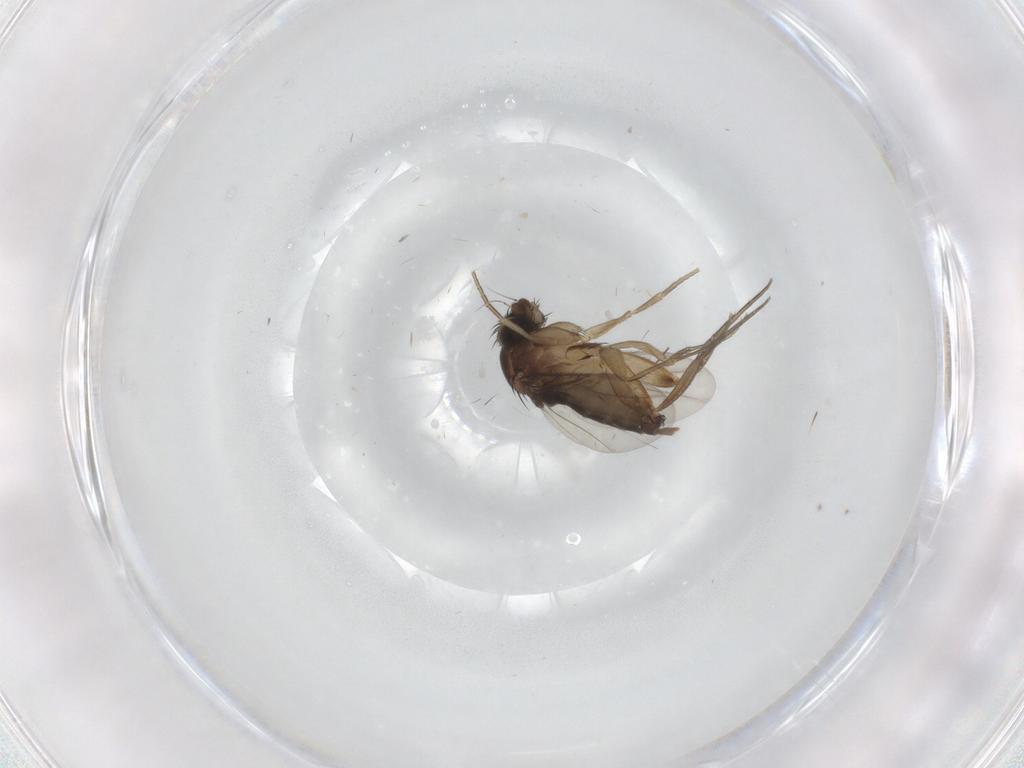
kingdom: Animalia
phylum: Arthropoda
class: Insecta
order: Diptera
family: Phoridae
